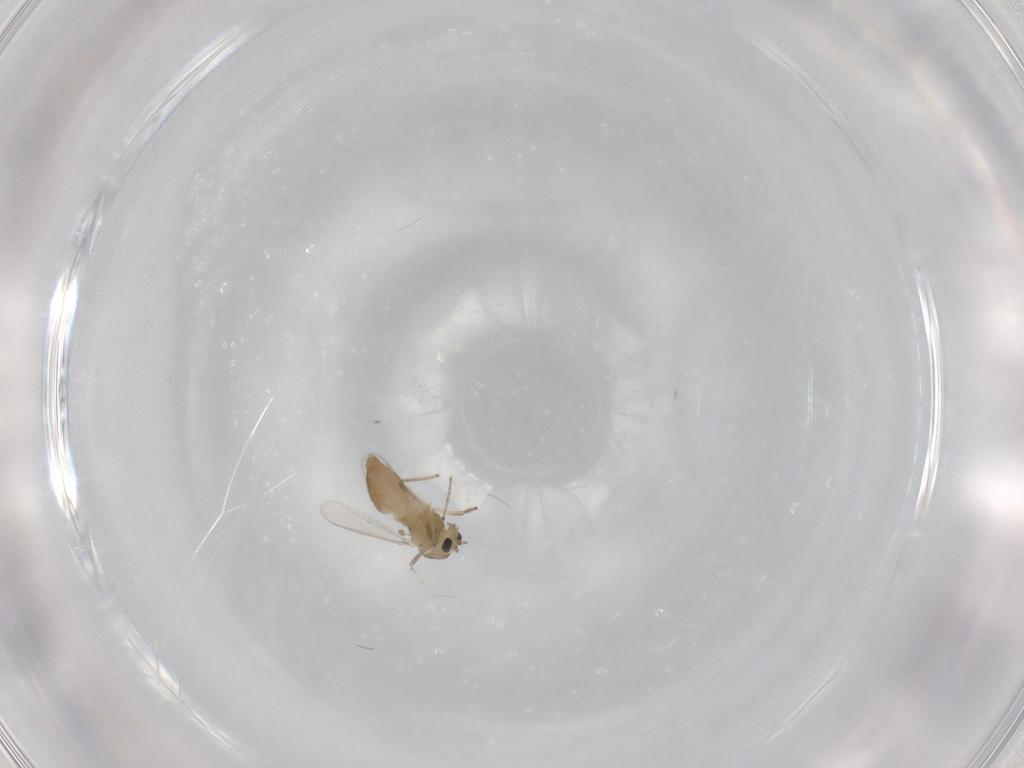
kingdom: Animalia
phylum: Arthropoda
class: Insecta
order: Diptera
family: Chironomidae
